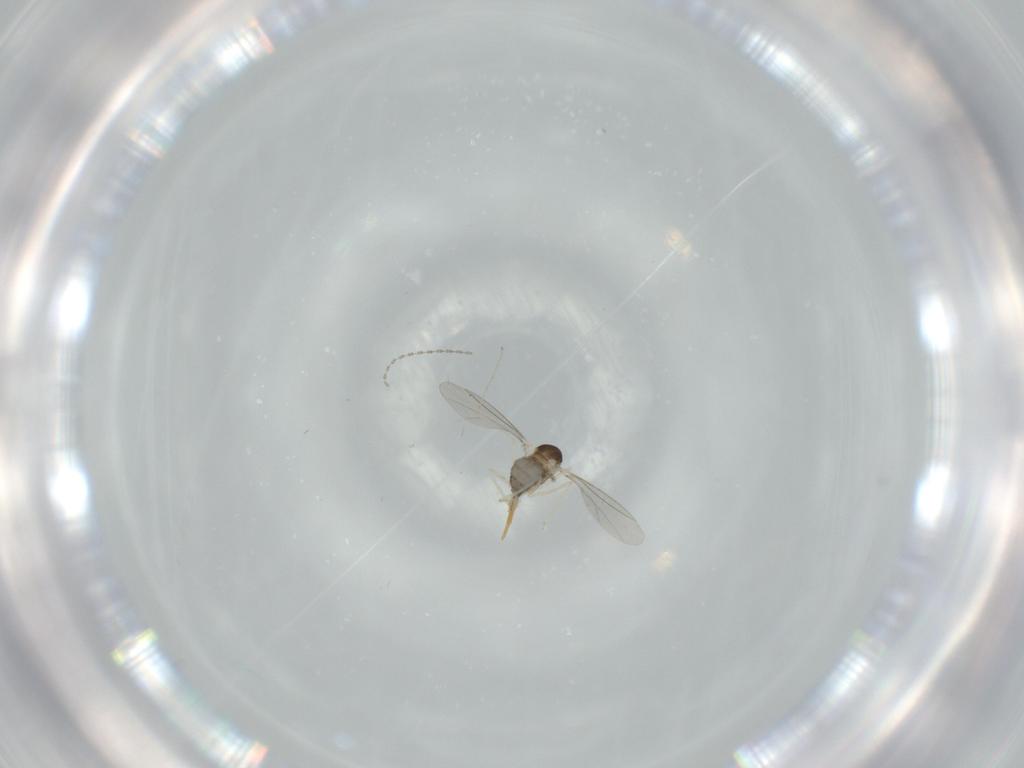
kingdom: Animalia
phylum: Arthropoda
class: Insecta
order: Diptera
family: Cecidomyiidae
